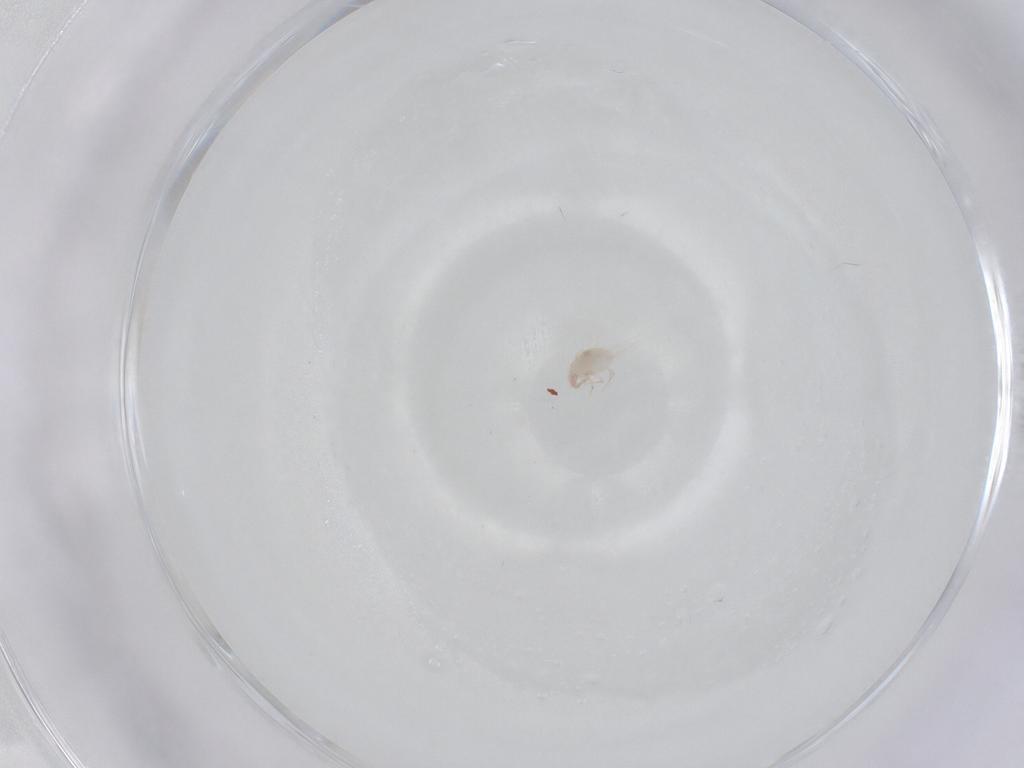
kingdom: Animalia
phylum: Arthropoda
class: Arachnida
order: Sarcoptiformes
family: Acaridae
